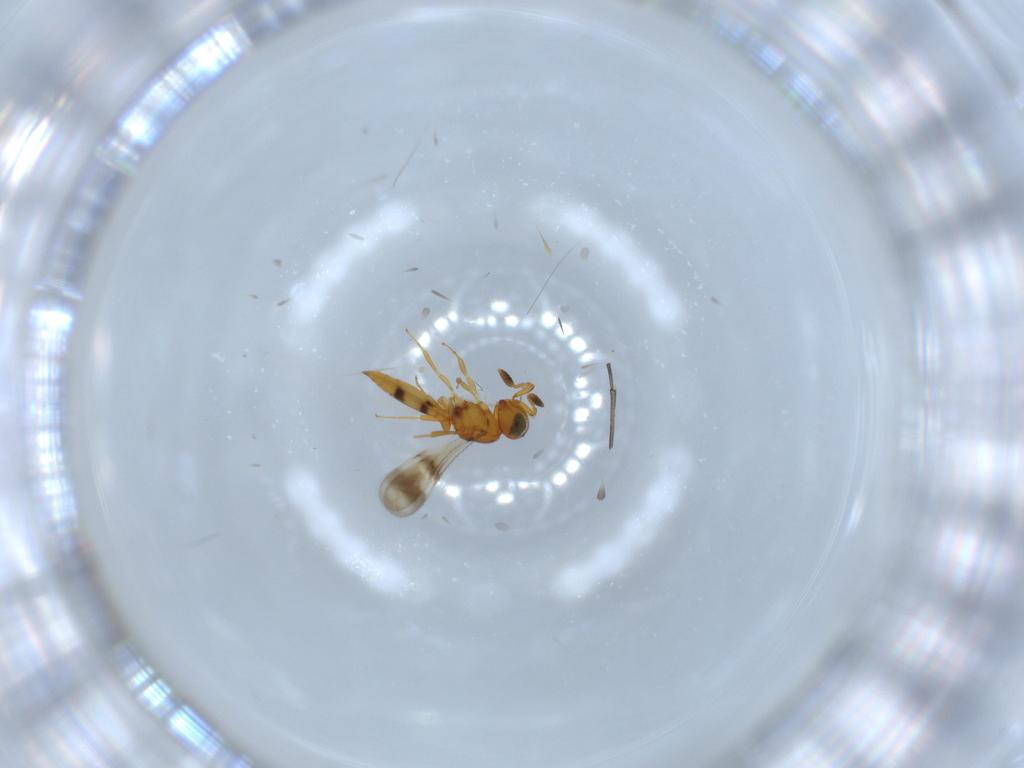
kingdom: Animalia
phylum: Arthropoda
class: Insecta
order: Hymenoptera
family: Scelionidae
